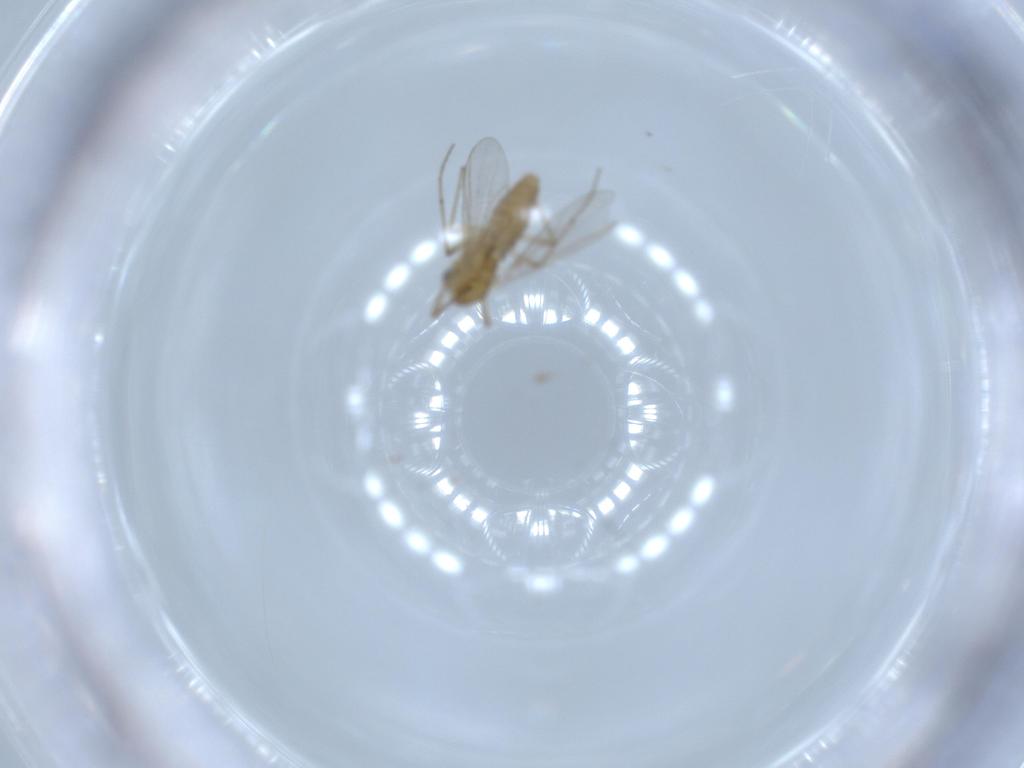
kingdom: Animalia
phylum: Arthropoda
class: Insecta
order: Diptera
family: Chironomidae
